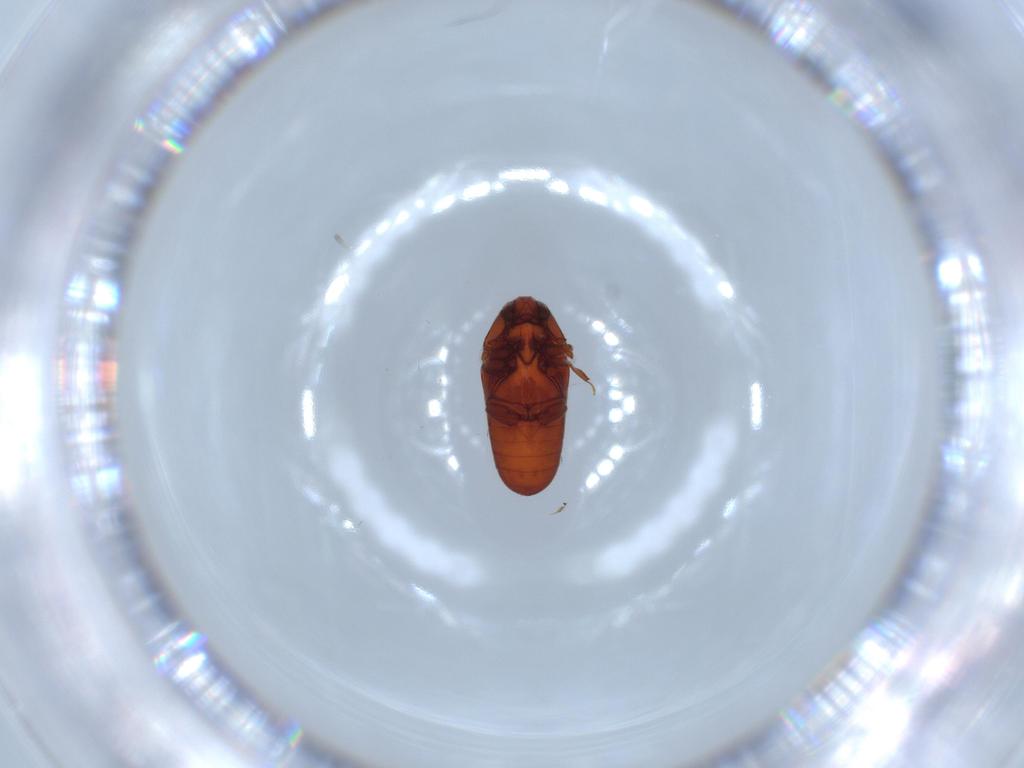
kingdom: Animalia
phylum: Arthropoda
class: Insecta
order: Coleoptera
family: Throscidae
